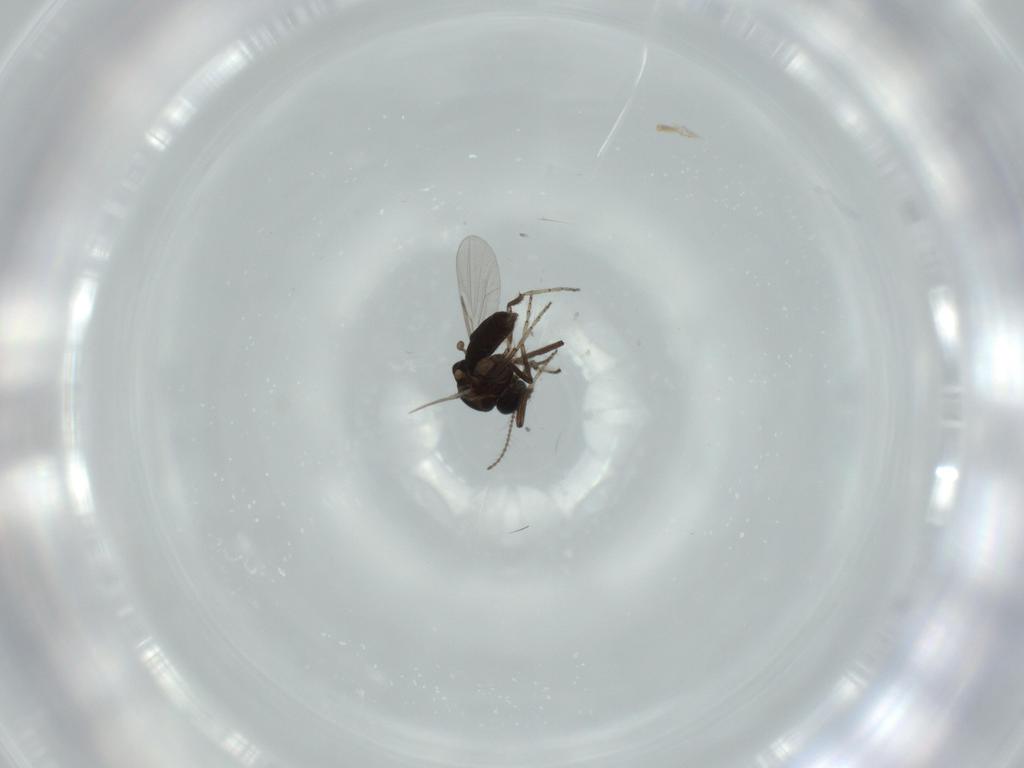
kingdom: Animalia
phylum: Arthropoda
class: Insecta
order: Diptera
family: Ceratopogonidae
